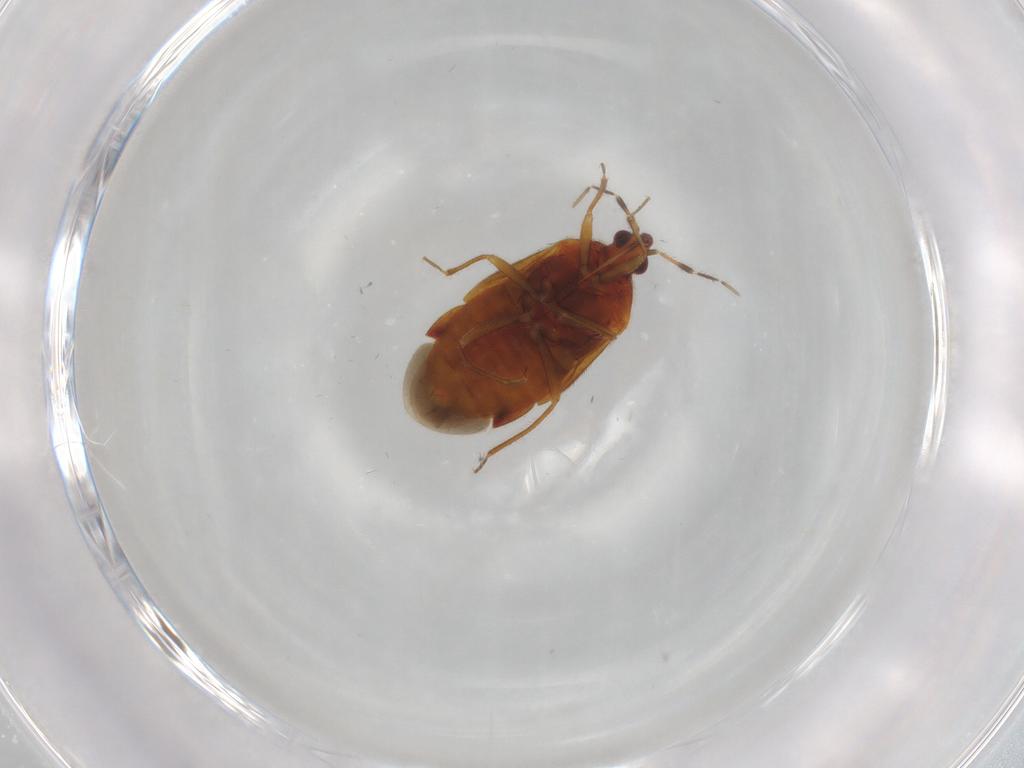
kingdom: Animalia
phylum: Arthropoda
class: Insecta
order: Hemiptera
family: Anthocoridae
